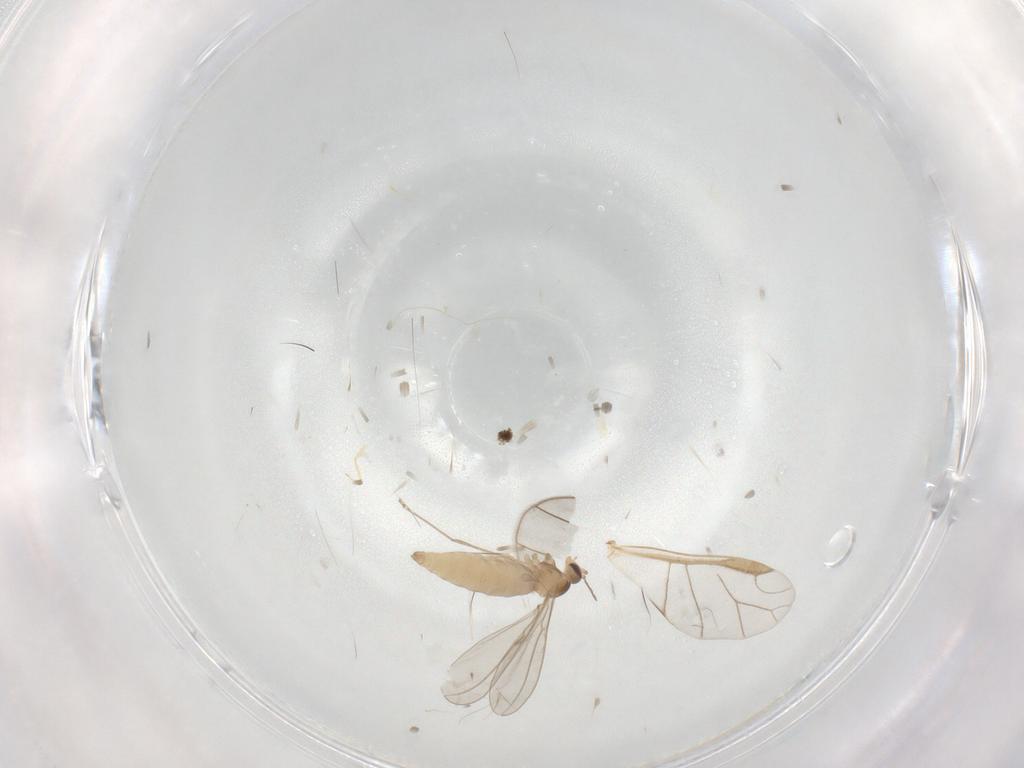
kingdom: Animalia
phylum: Arthropoda
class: Insecta
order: Diptera
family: Cecidomyiidae
